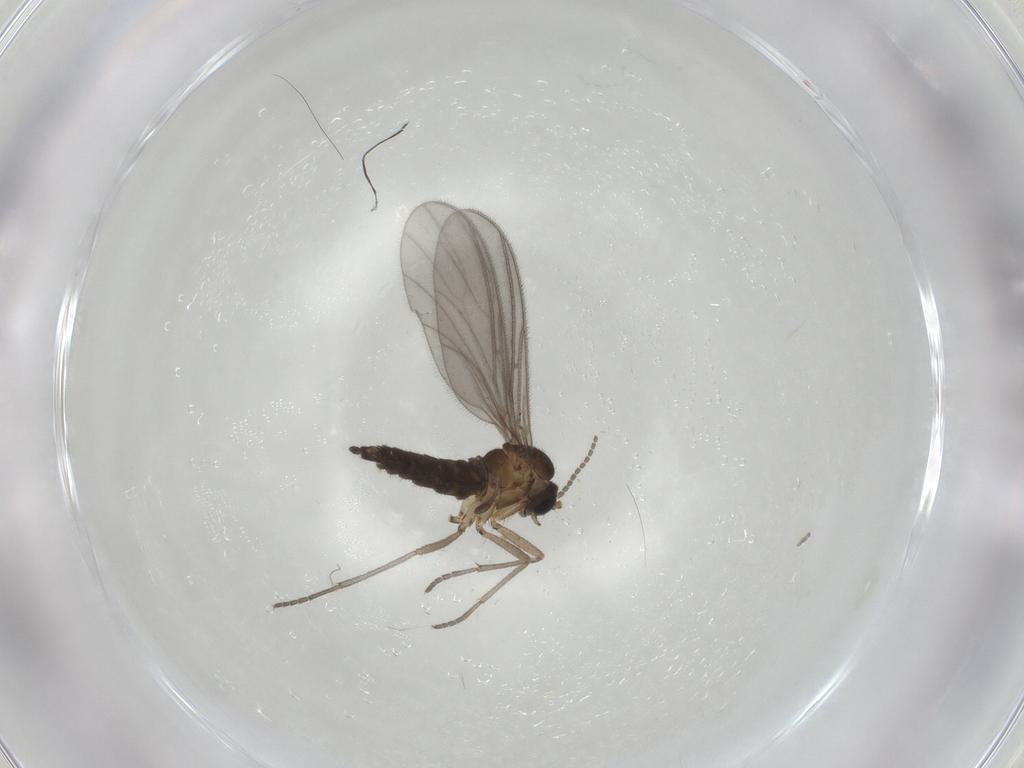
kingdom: Animalia
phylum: Arthropoda
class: Insecta
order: Diptera
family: Sciaridae
